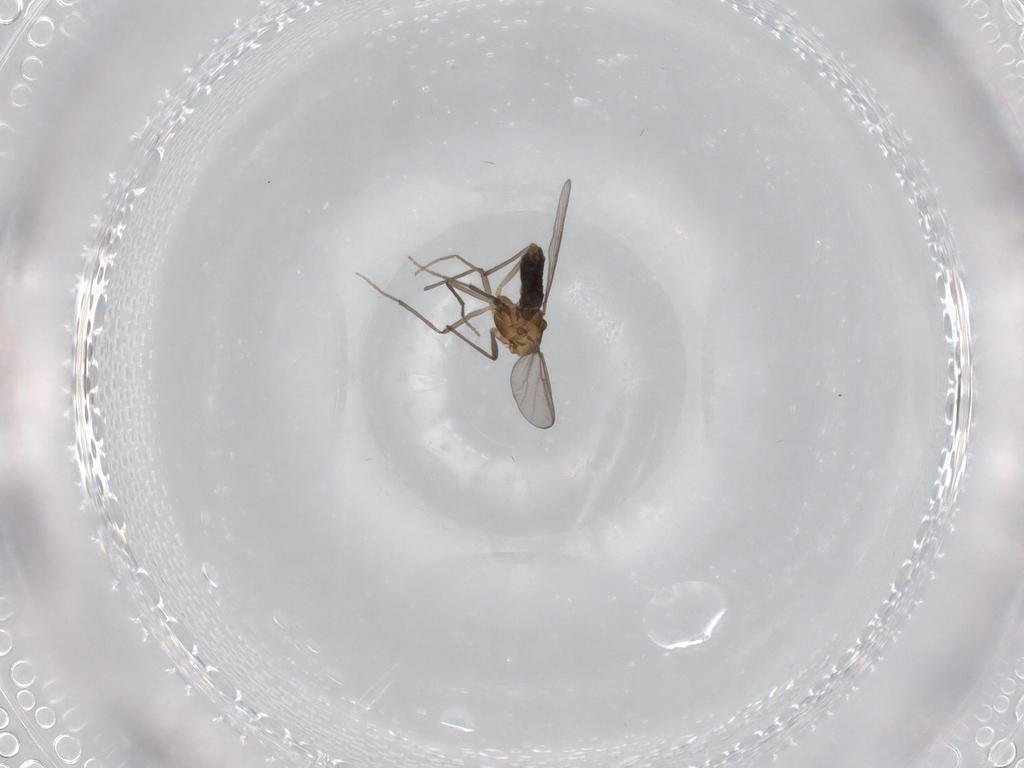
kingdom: Animalia
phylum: Arthropoda
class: Insecta
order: Diptera
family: Chironomidae
